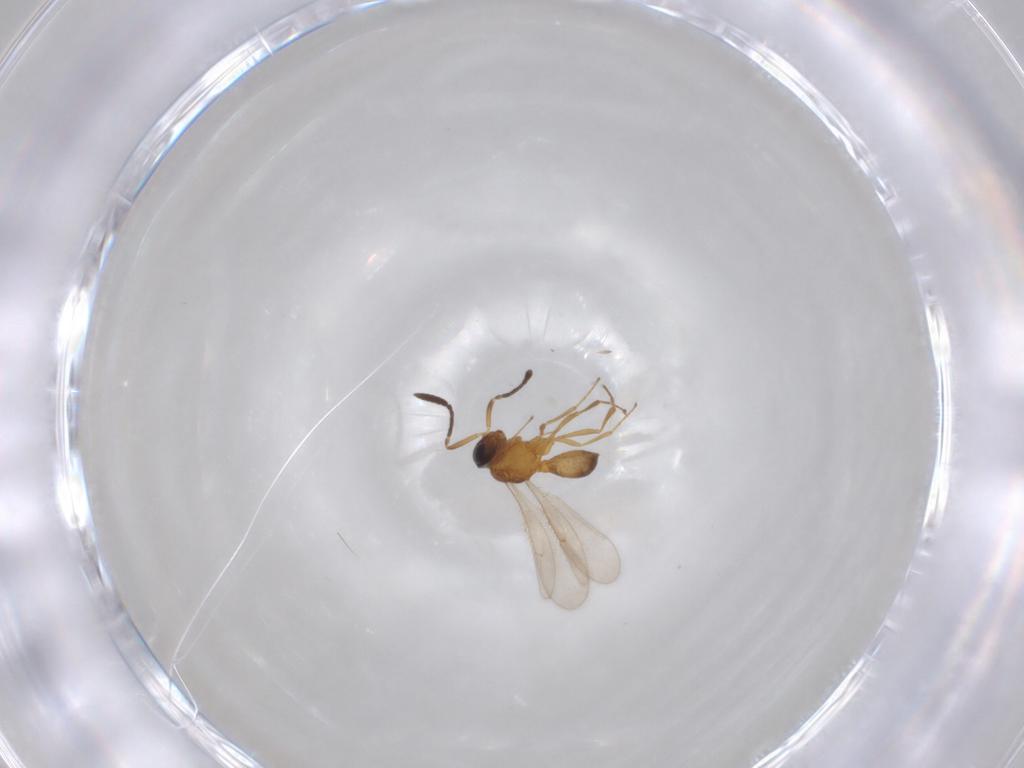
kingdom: Animalia
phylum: Arthropoda
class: Insecta
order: Hymenoptera
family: Scelionidae
